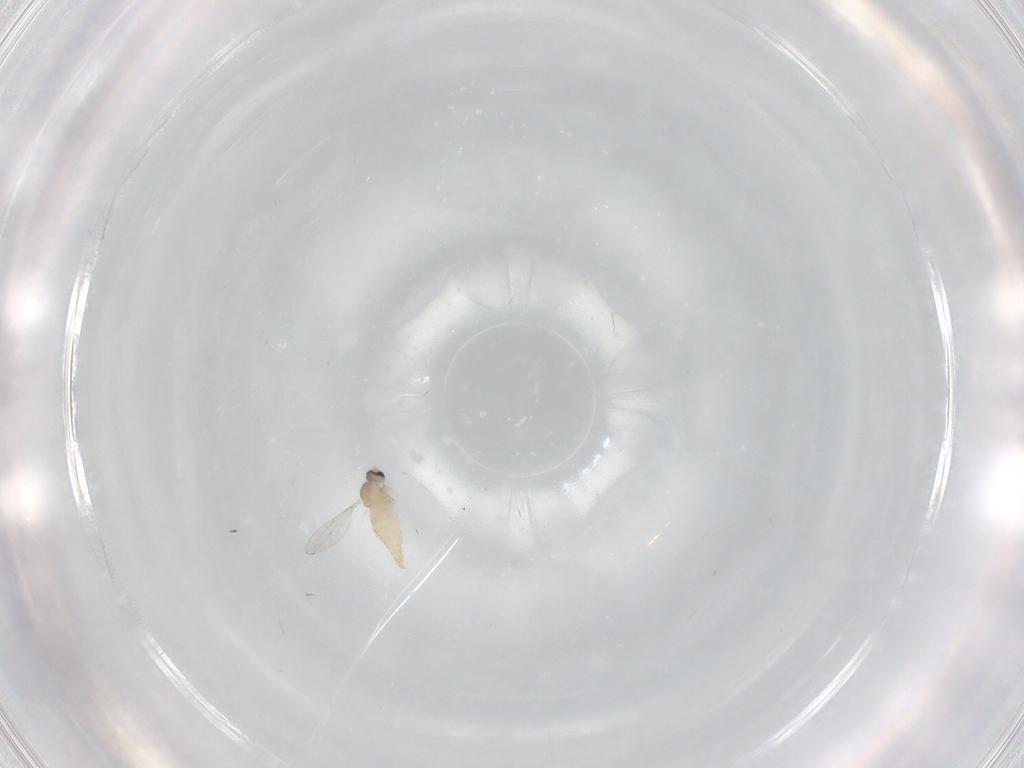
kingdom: Animalia
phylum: Arthropoda
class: Insecta
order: Diptera
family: Cecidomyiidae
